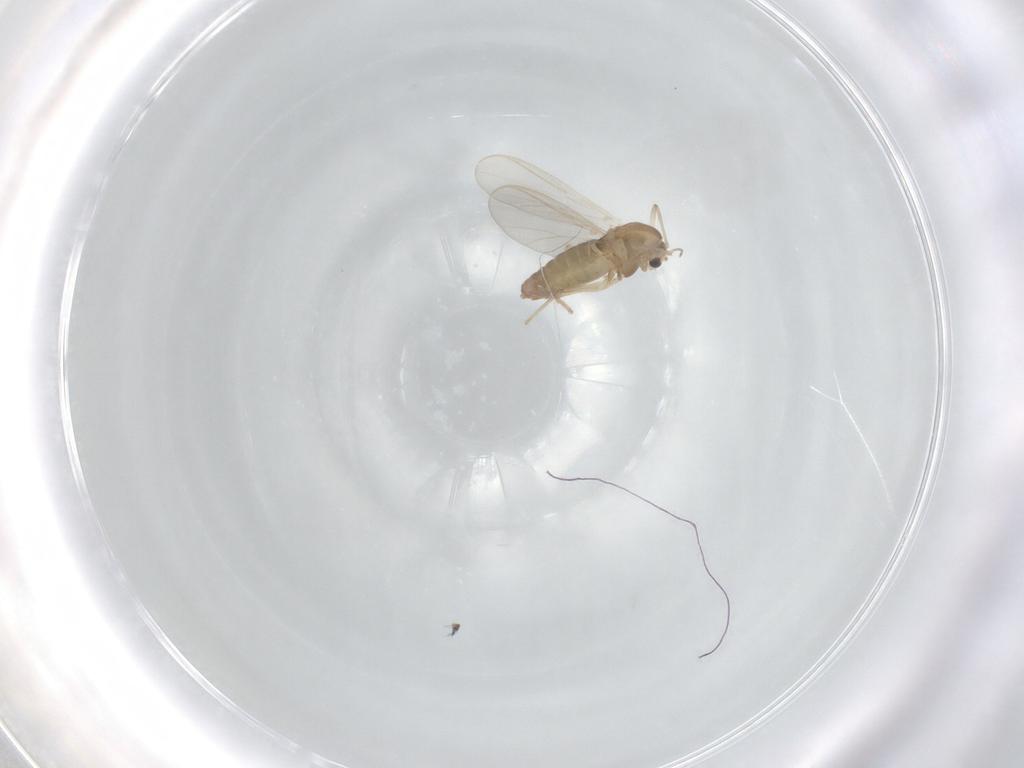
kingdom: Animalia
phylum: Arthropoda
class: Insecta
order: Diptera
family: Chironomidae
